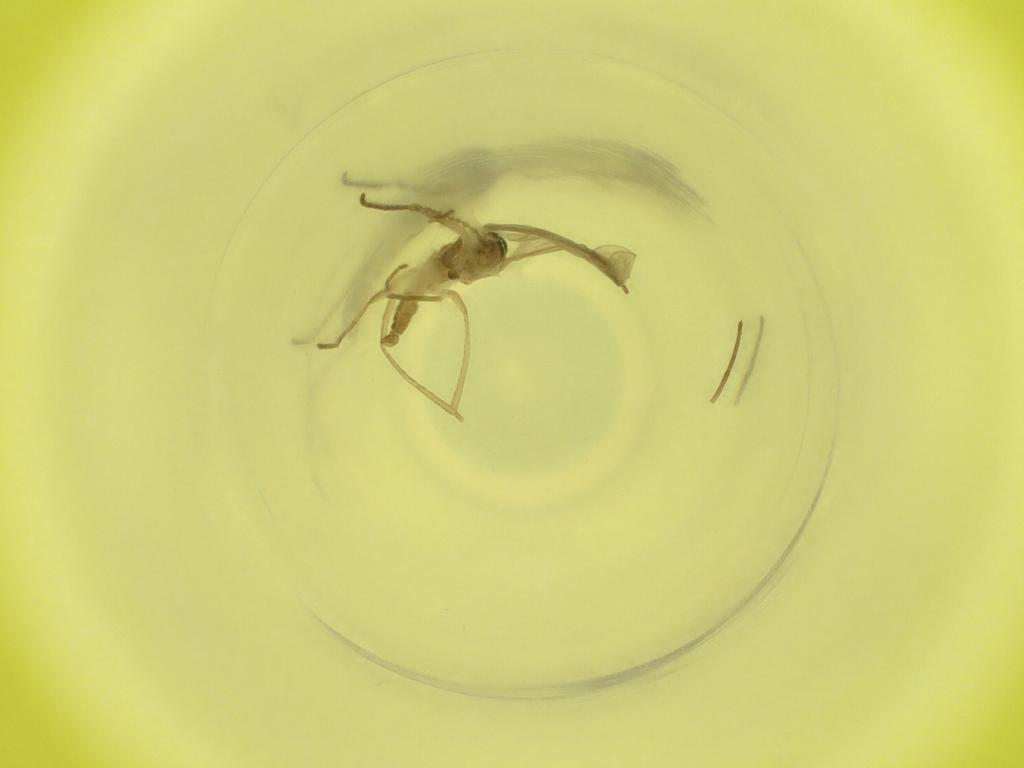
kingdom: Animalia
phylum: Arthropoda
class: Insecta
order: Diptera
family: Cecidomyiidae
